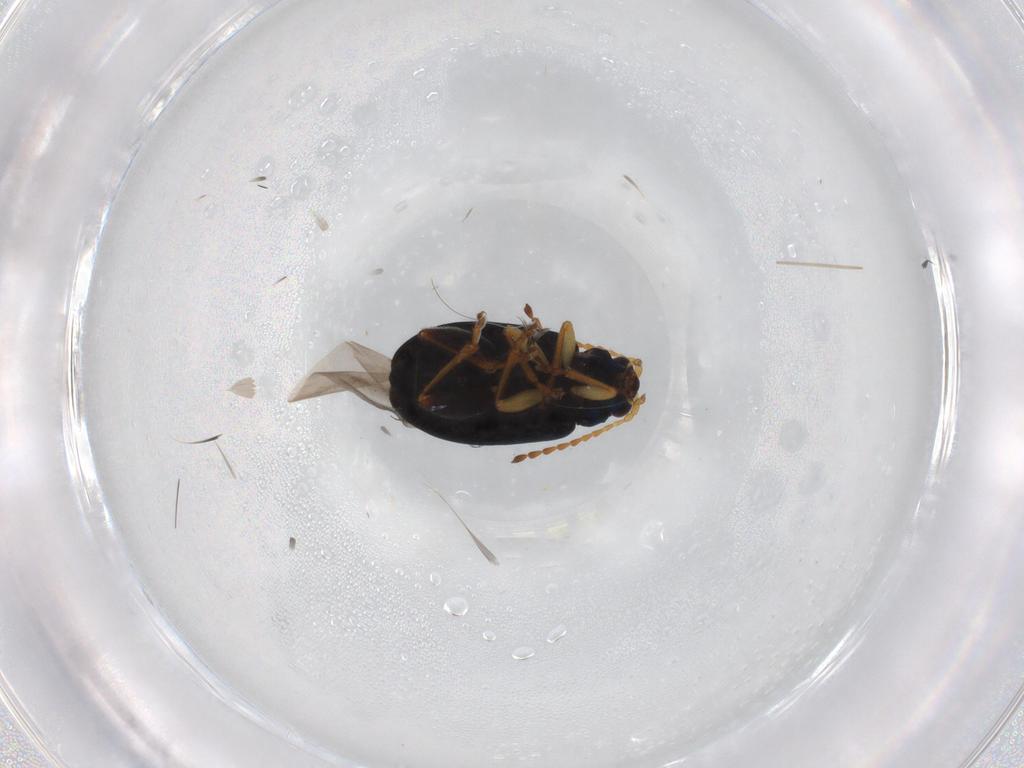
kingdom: Animalia
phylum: Arthropoda
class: Insecta
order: Coleoptera
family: Chrysomelidae
